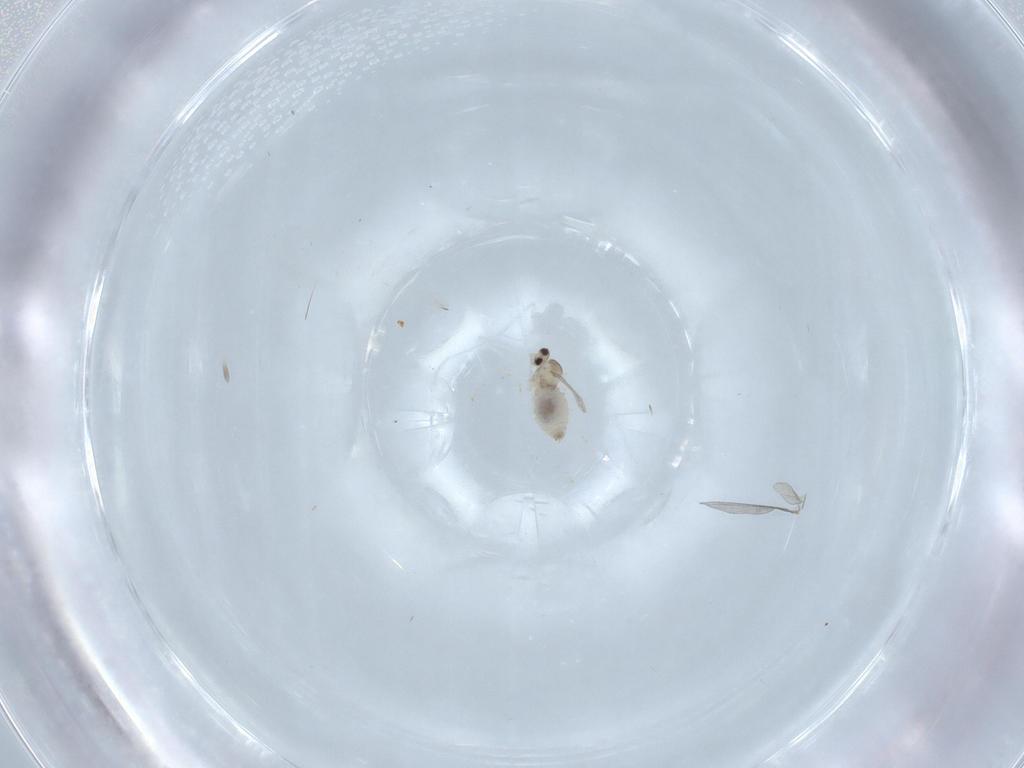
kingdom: Animalia
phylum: Arthropoda
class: Insecta
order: Diptera
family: Cecidomyiidae
